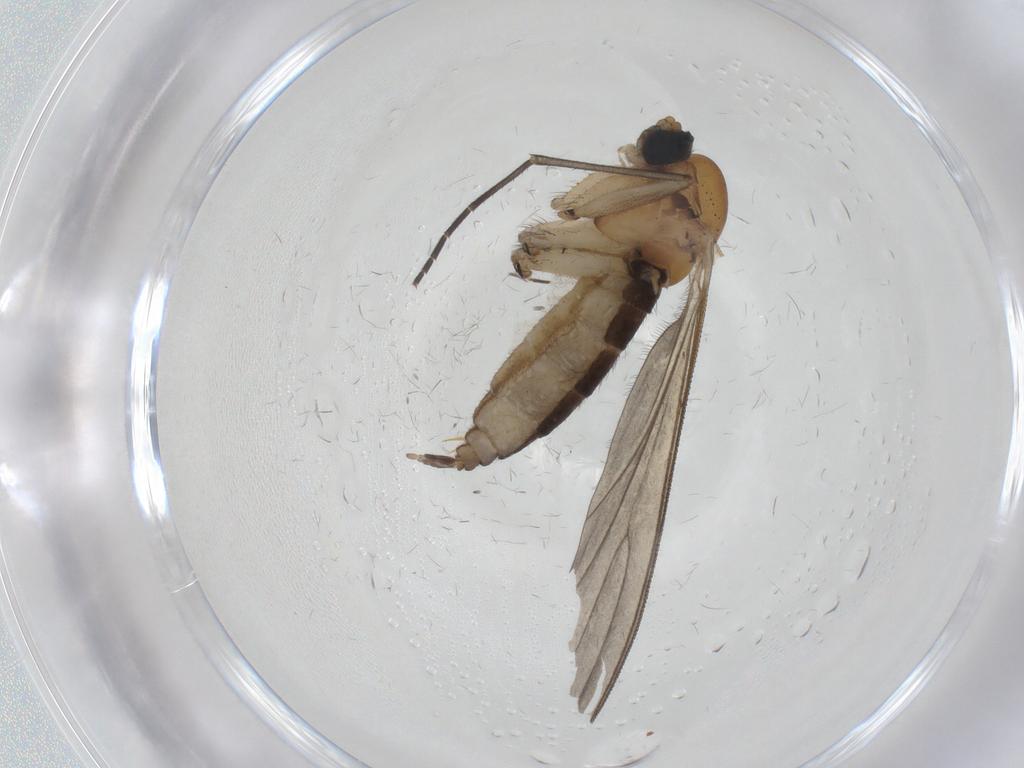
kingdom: Animalia
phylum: Arthropoda
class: Insecta
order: Diptera
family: Sciaridae
